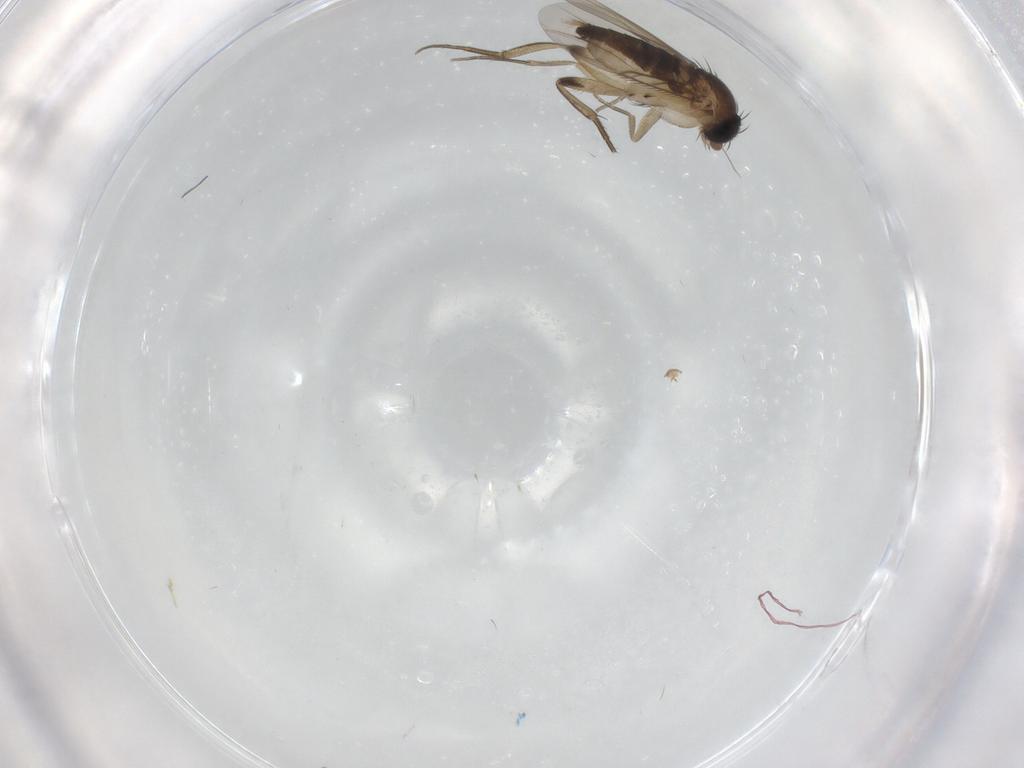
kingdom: Animalia
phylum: Arthropoda
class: Insecta
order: Diptera
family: Phoridae
